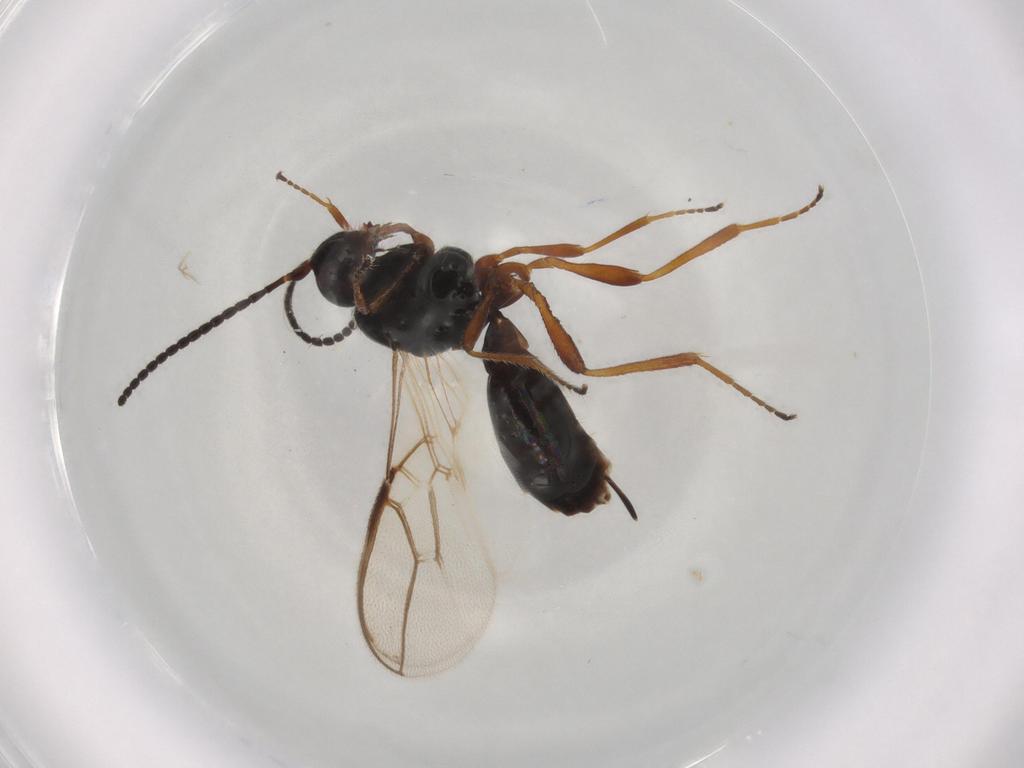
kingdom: Animalia
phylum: Arthropoda
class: Insecta
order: Hymenoptera
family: Braconidae
